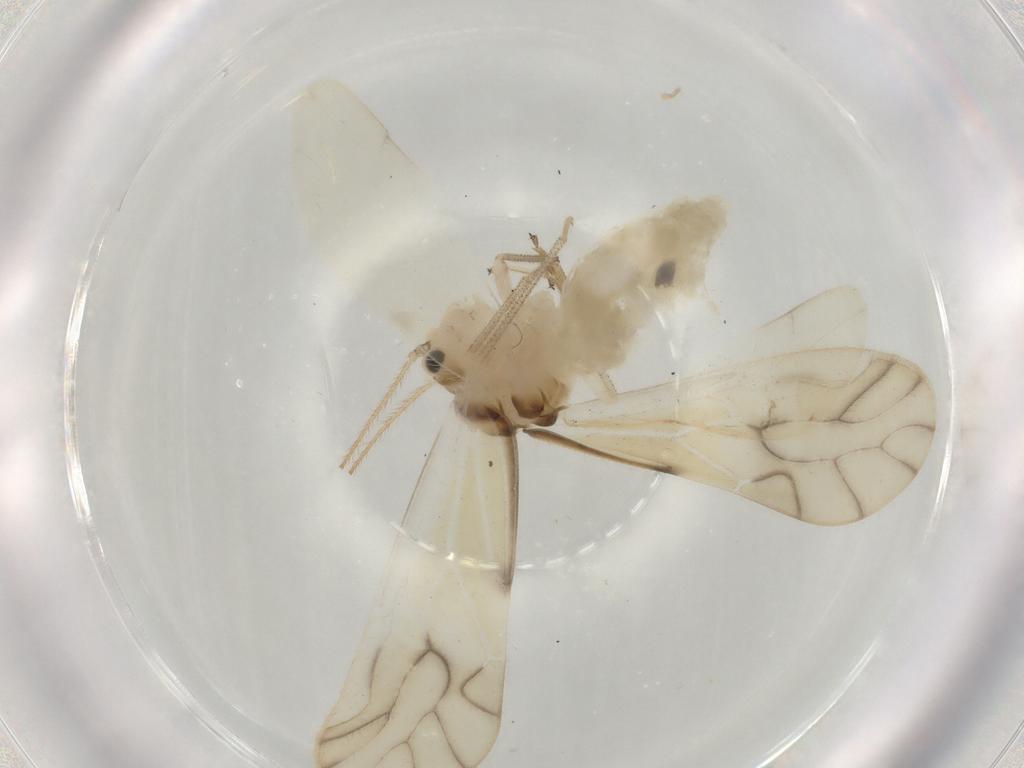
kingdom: Animalia
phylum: Arthropoda
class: Insecta
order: Psocodea
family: Caeciliusidae
